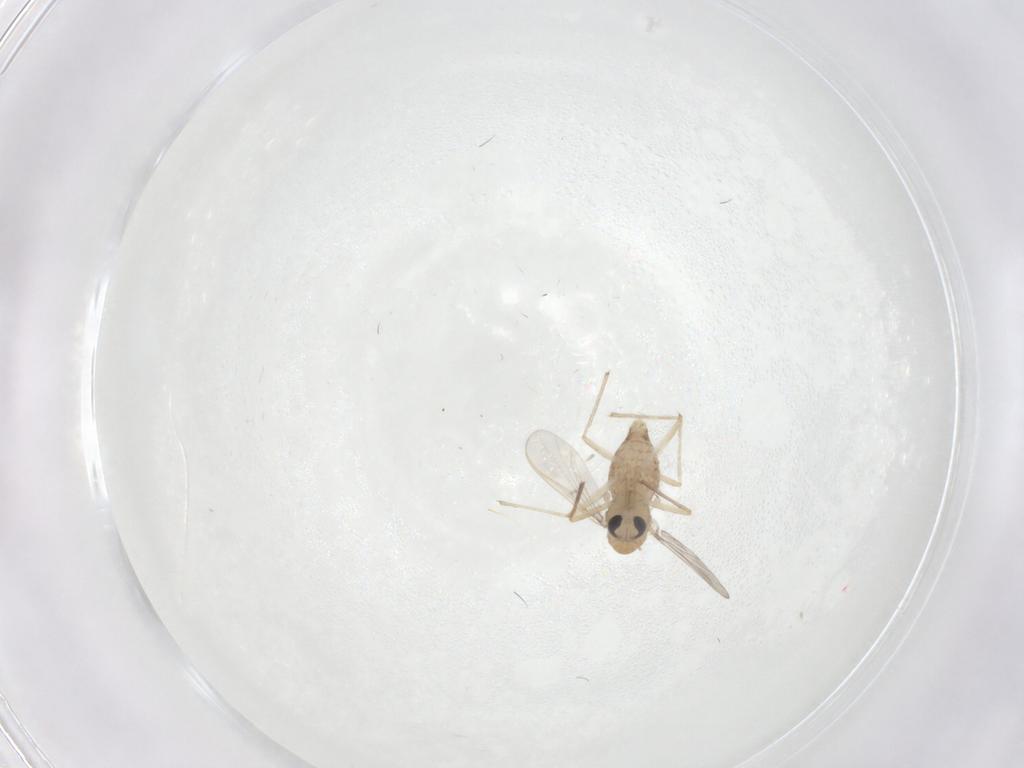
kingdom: Animalia
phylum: Arthropoda
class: Insecta
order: Diptera
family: Chironomidae
